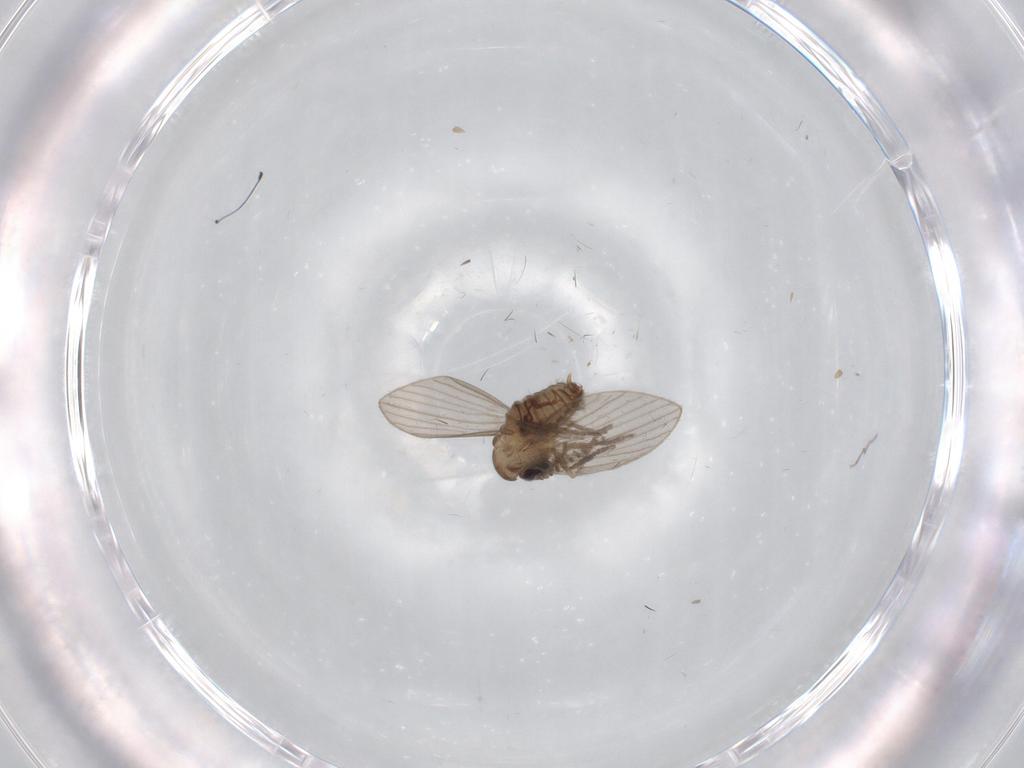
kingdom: Animalia
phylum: Arthropoda
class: Insecta
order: Diptera
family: Psychodidae
